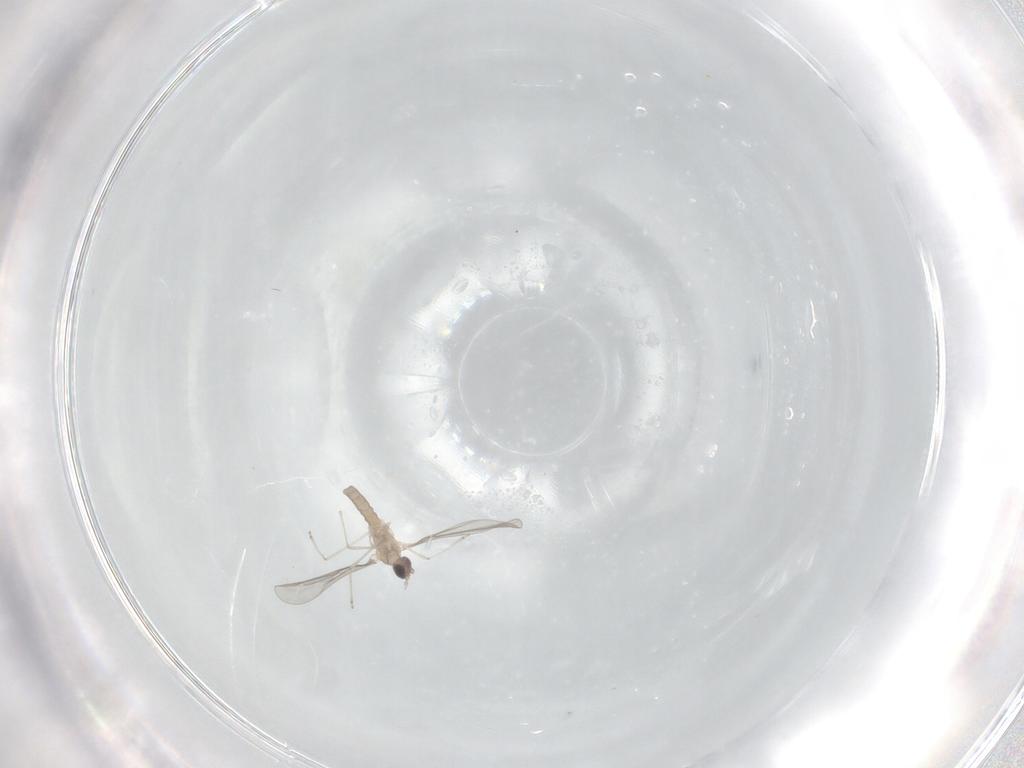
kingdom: Animalia
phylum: Arthropoda
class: Insecta
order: Diptera
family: Cecidomyiidae
